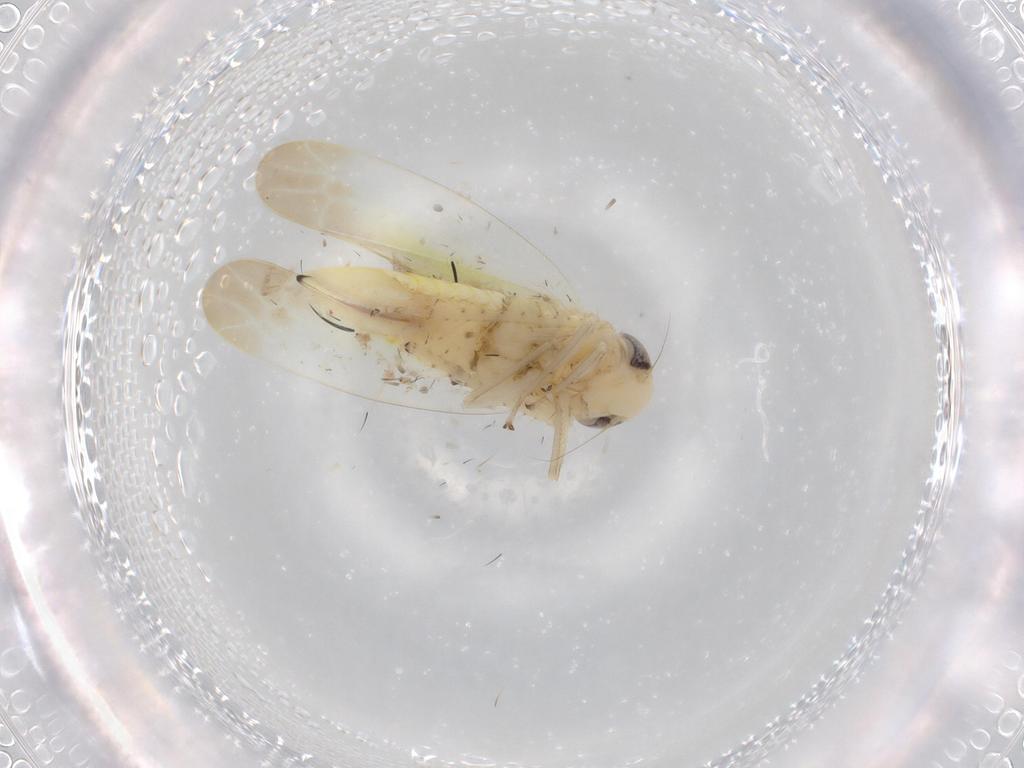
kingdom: Animalia
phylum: Arthropoda
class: Insecta
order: Hemiptera
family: Cicadellidae
